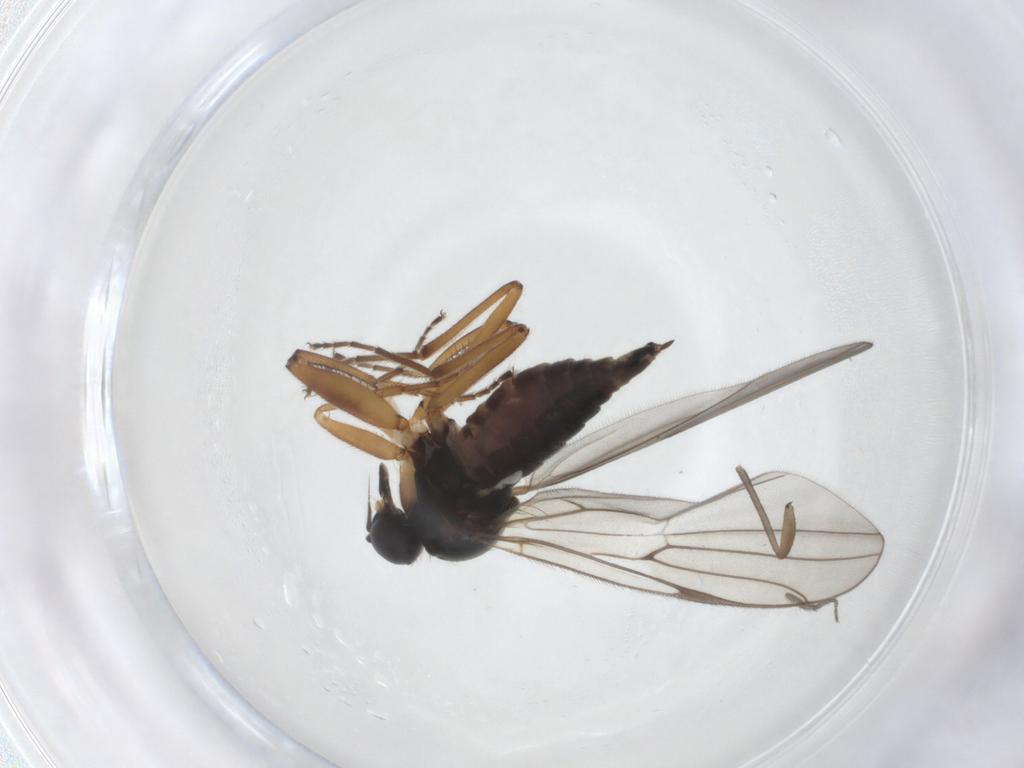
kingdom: Animalia
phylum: Arthropoda
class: Insecta
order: Diptera
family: Hybotidae
